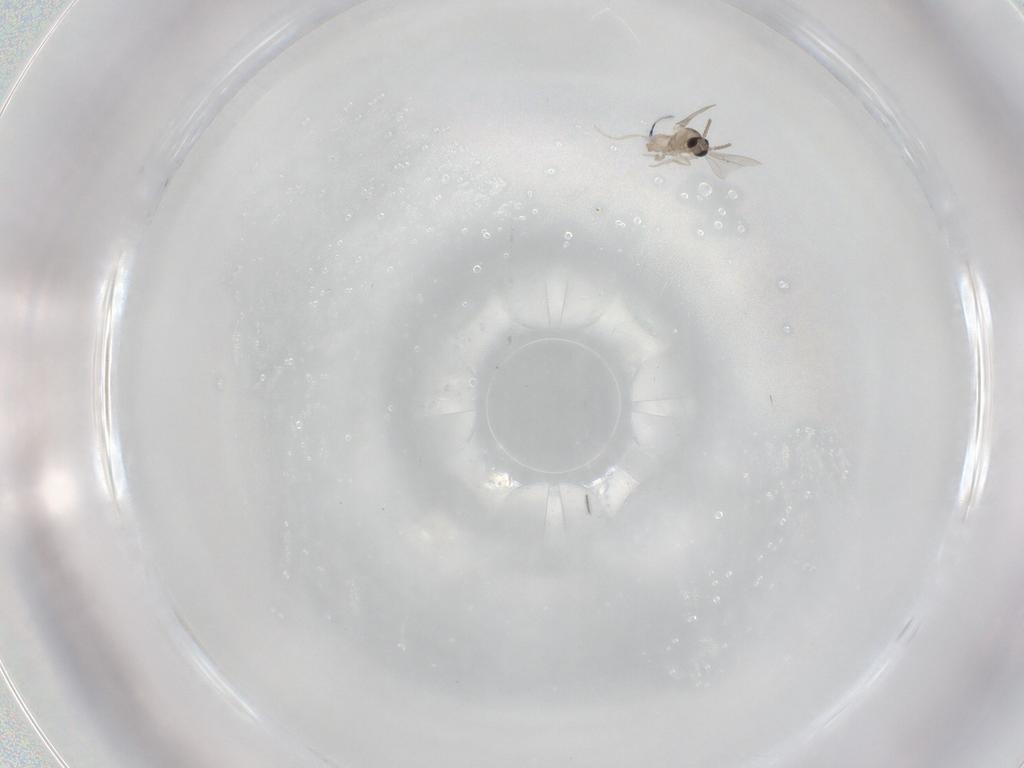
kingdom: Animalia
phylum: Arthropoda
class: Insecta
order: Diptera
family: Cecidomyiidae
